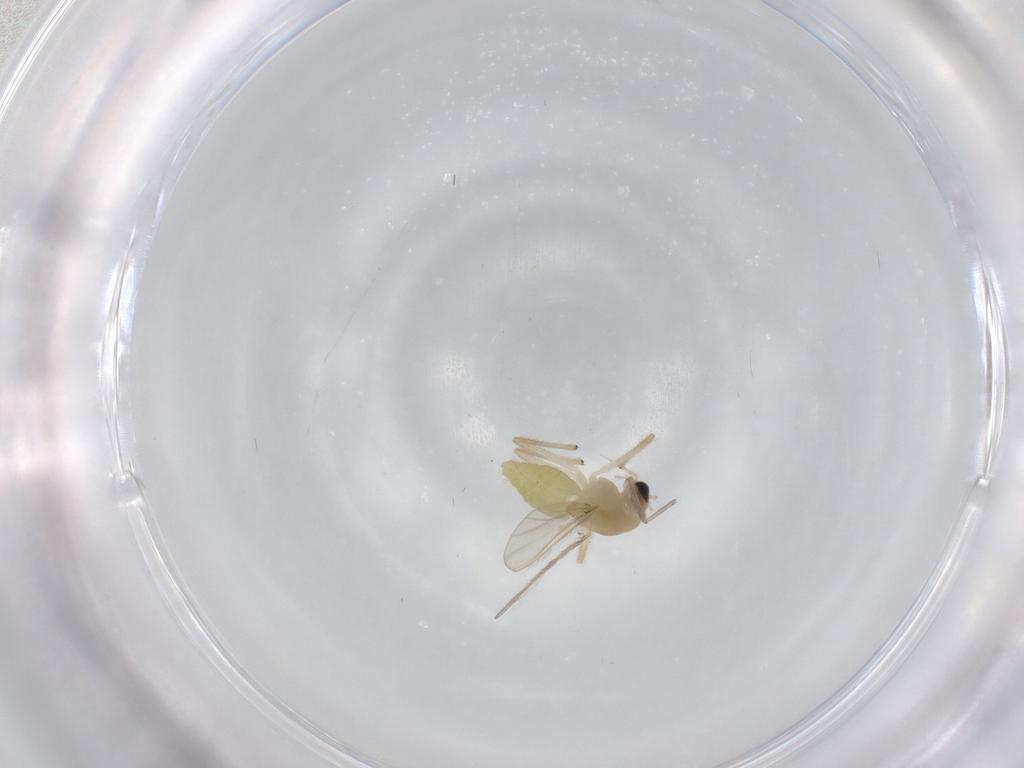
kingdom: Animalia
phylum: Arthropoda
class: Insecta
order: Diptera
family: Chironomidae
